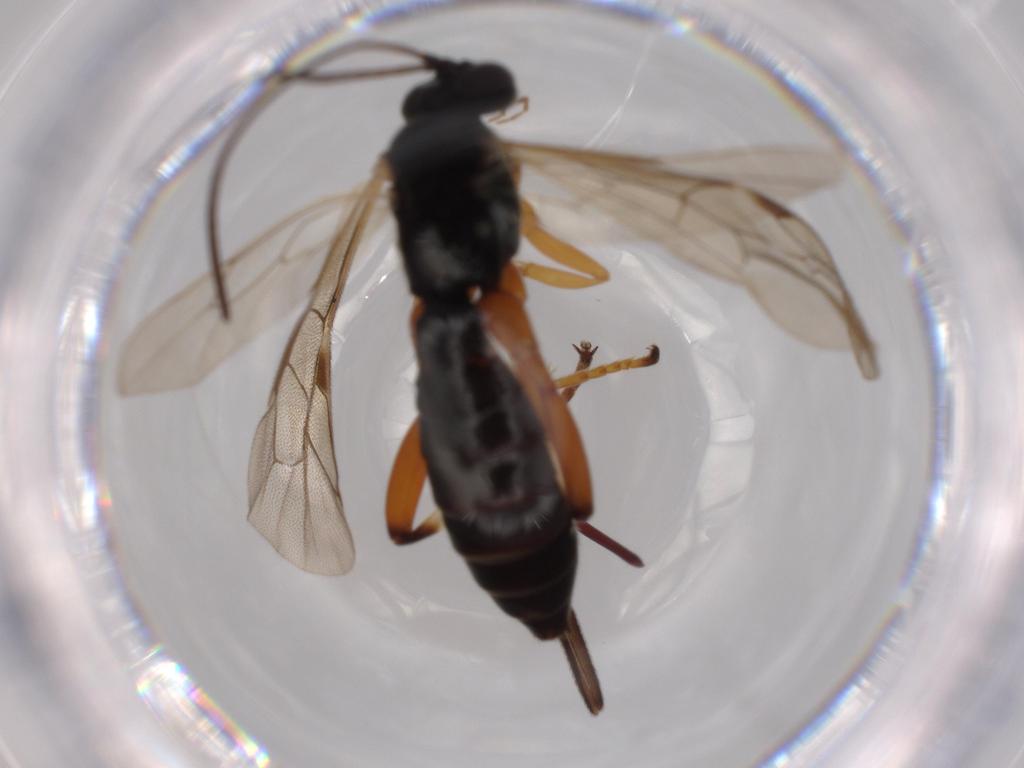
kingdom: Animalia
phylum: Arthropoda
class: Insecta
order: Hymenoptera
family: Ichneumonidae
